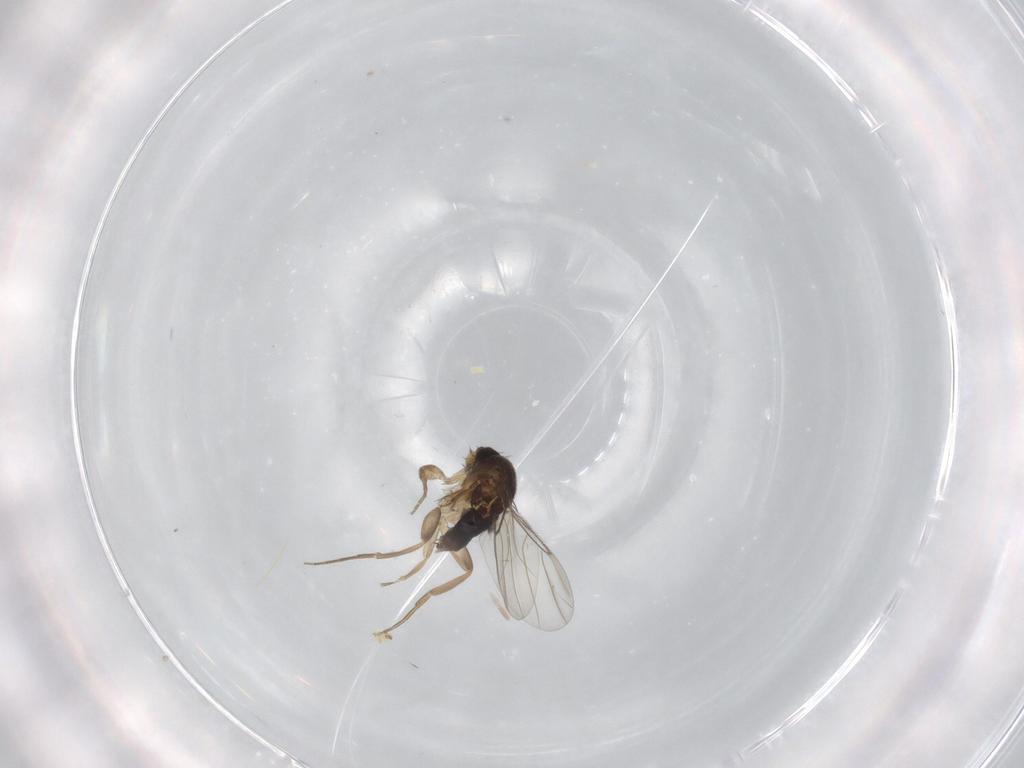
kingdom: Animalia
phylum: Arthropoda
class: Insecta
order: Diptera
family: Phoridae
